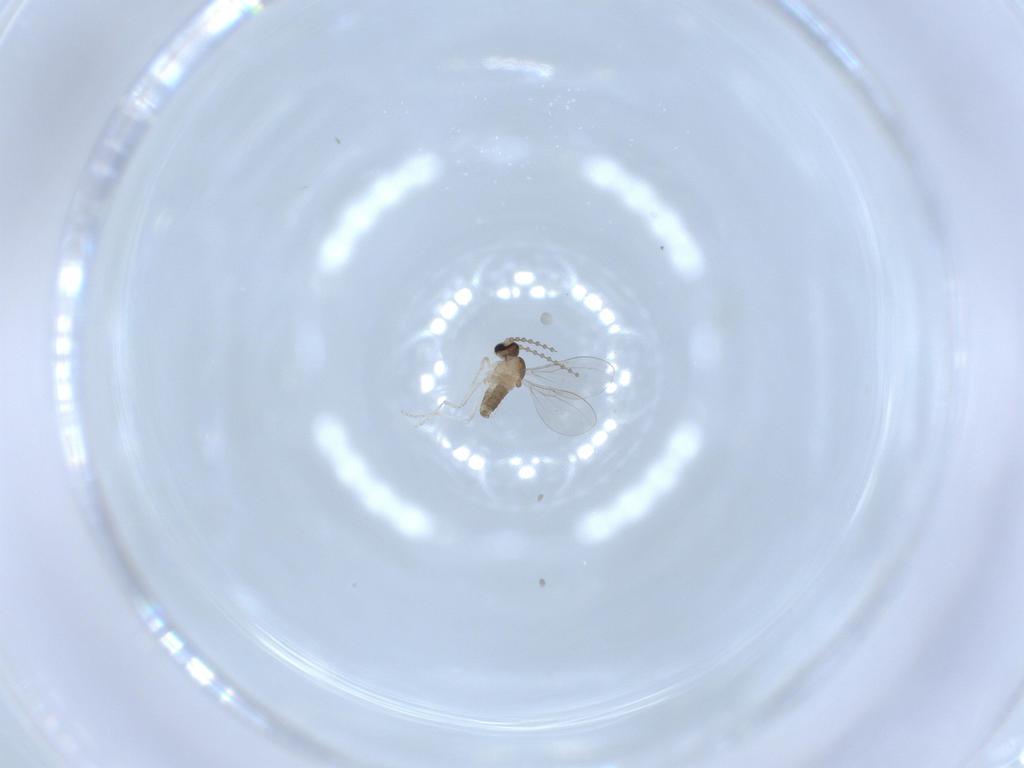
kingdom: Animalia
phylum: Arthropoda
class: Insecta
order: Diptera
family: Cecidomyiidae
